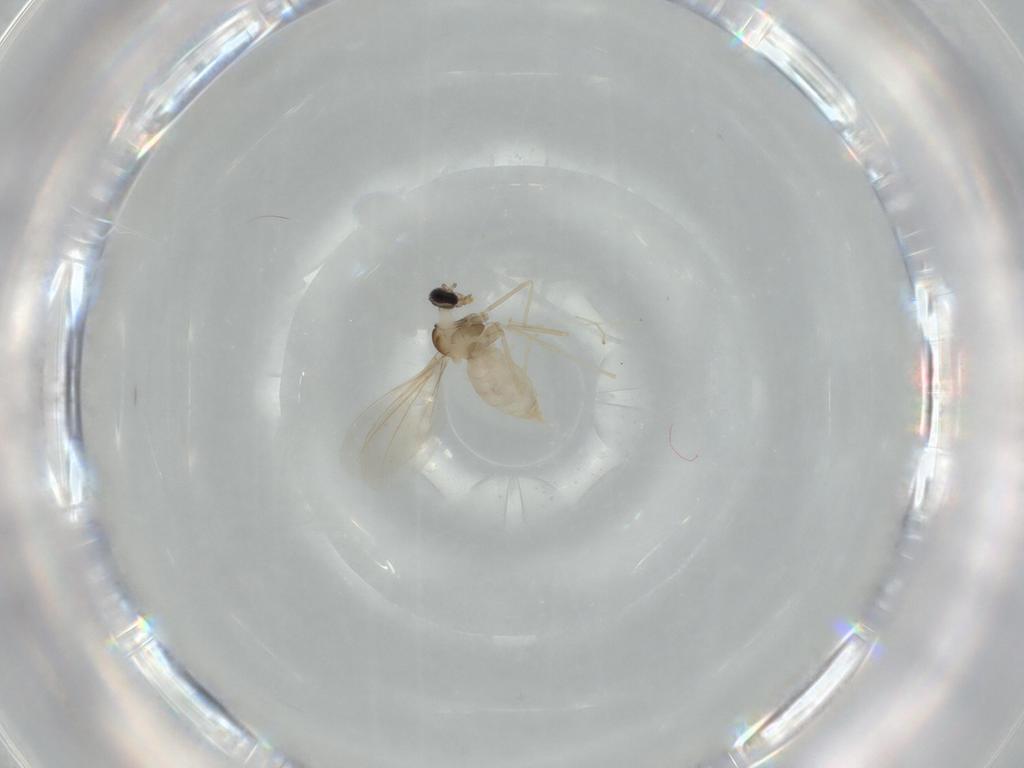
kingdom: Animalia
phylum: Arthropoda
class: Insecta
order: Diptera
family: Cecidomyiidae
